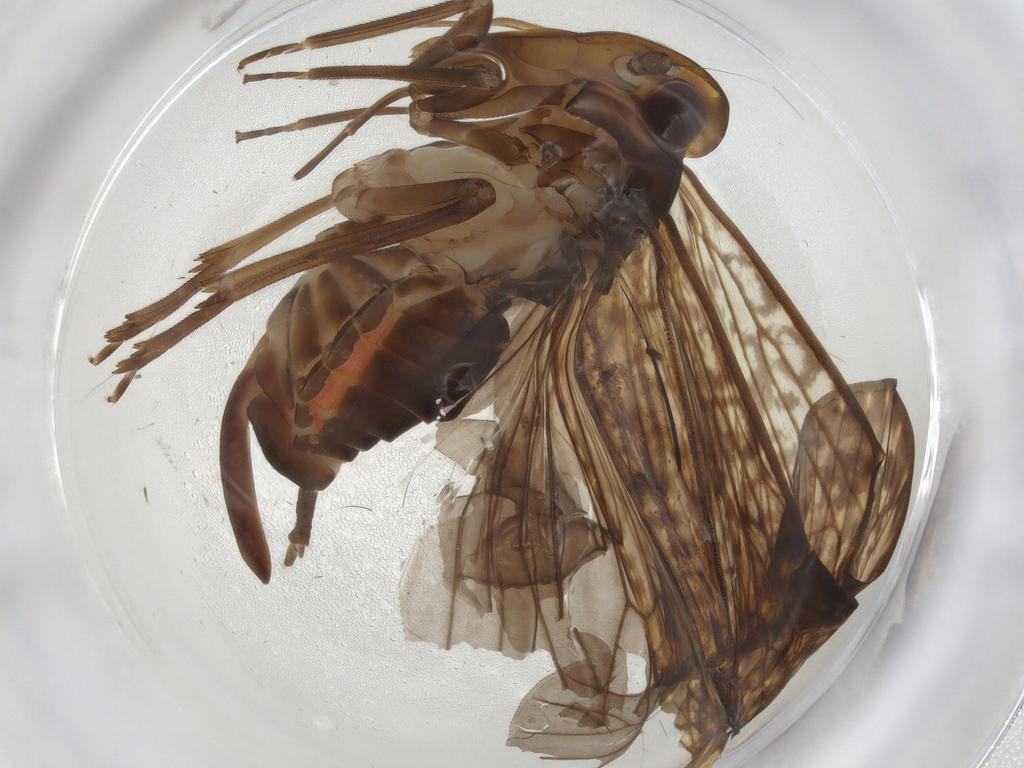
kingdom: Animalia
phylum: Arthropoda
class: Insecta
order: Hemiptera
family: Cixiidae
